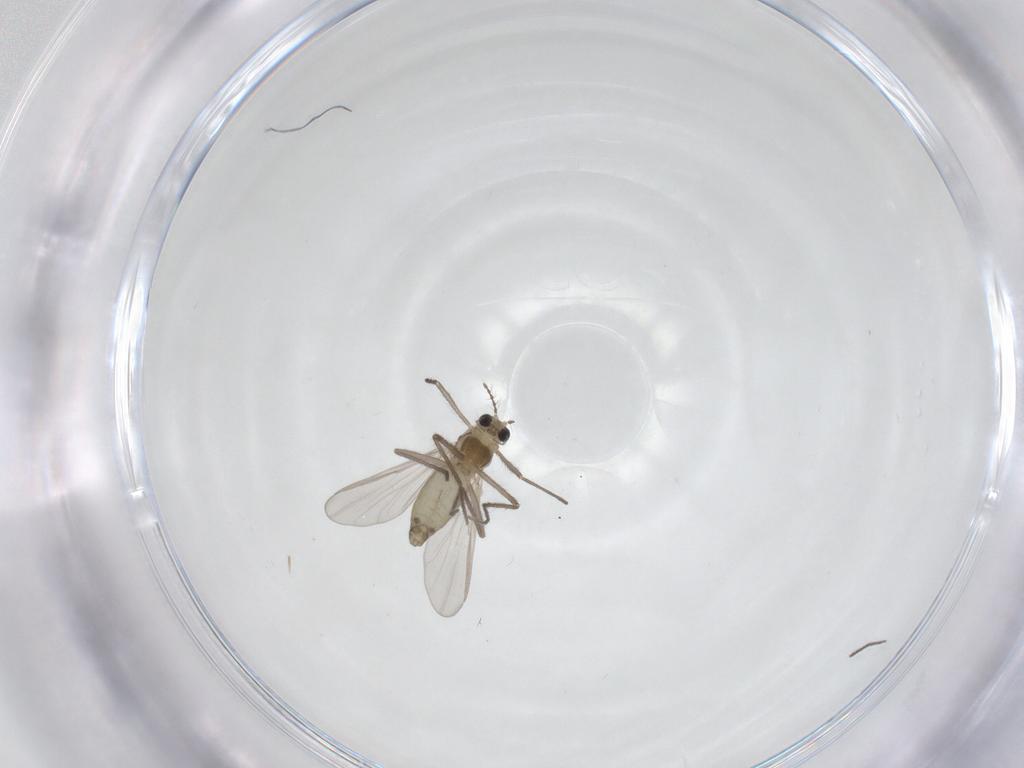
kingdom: Animalia
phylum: Arthropoda
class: Insecta
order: Diptera
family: Chironomidae
